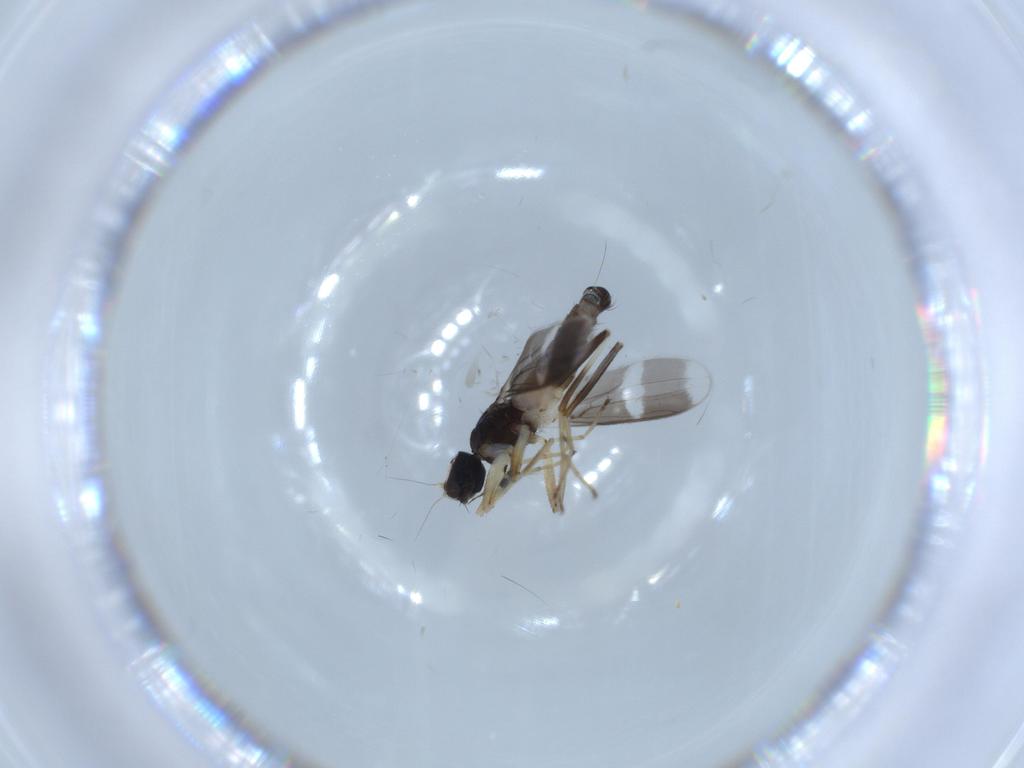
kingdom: Animalia
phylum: Arthropoda
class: Insecta
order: Diptera
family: Hybotidae
